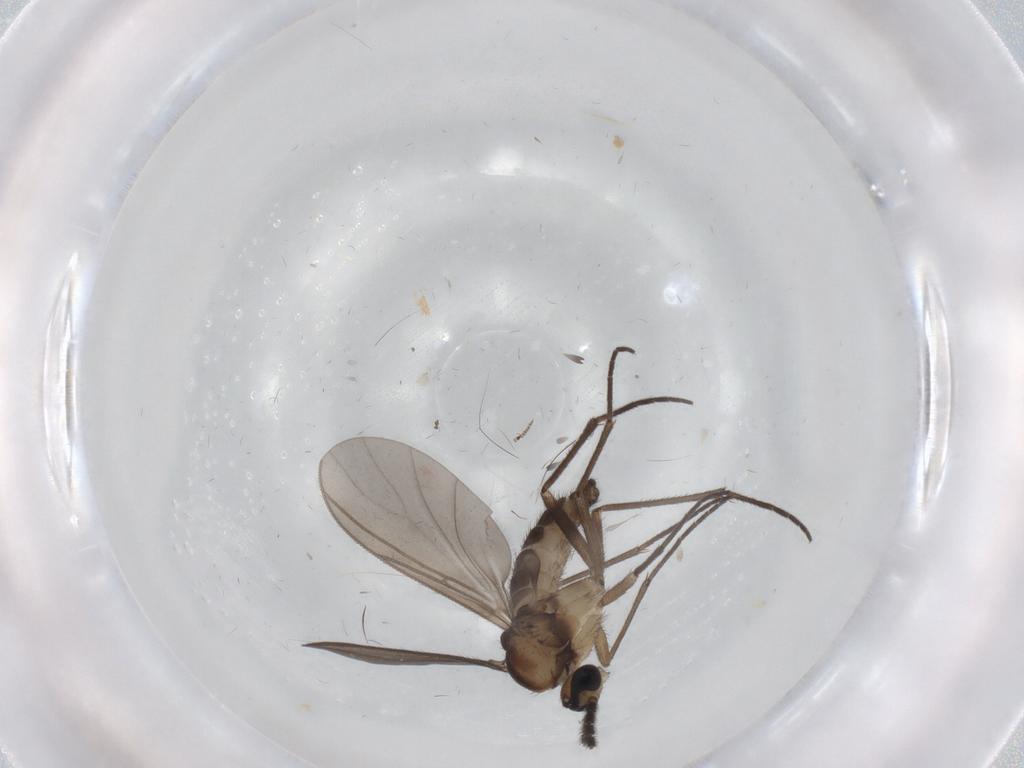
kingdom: Animalia
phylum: Arthropoda
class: Insecta
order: Diptera
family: Sciaridae
